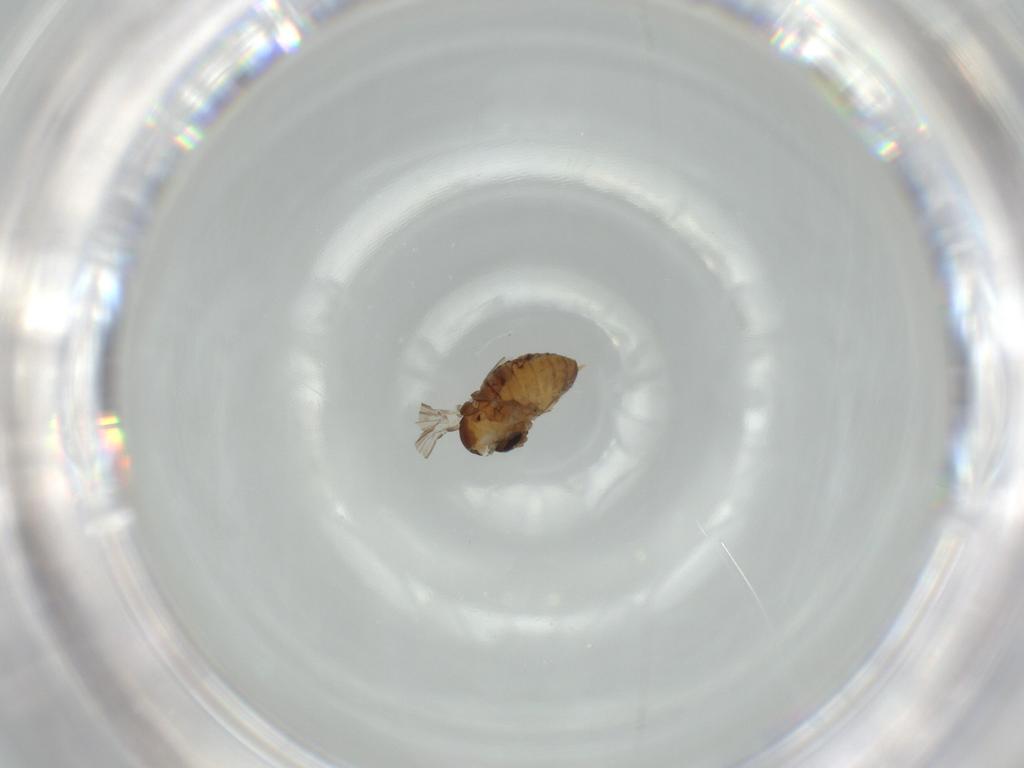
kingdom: Animalia
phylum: Arthropoda
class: Insecta
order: Diptera
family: Psychodidae
